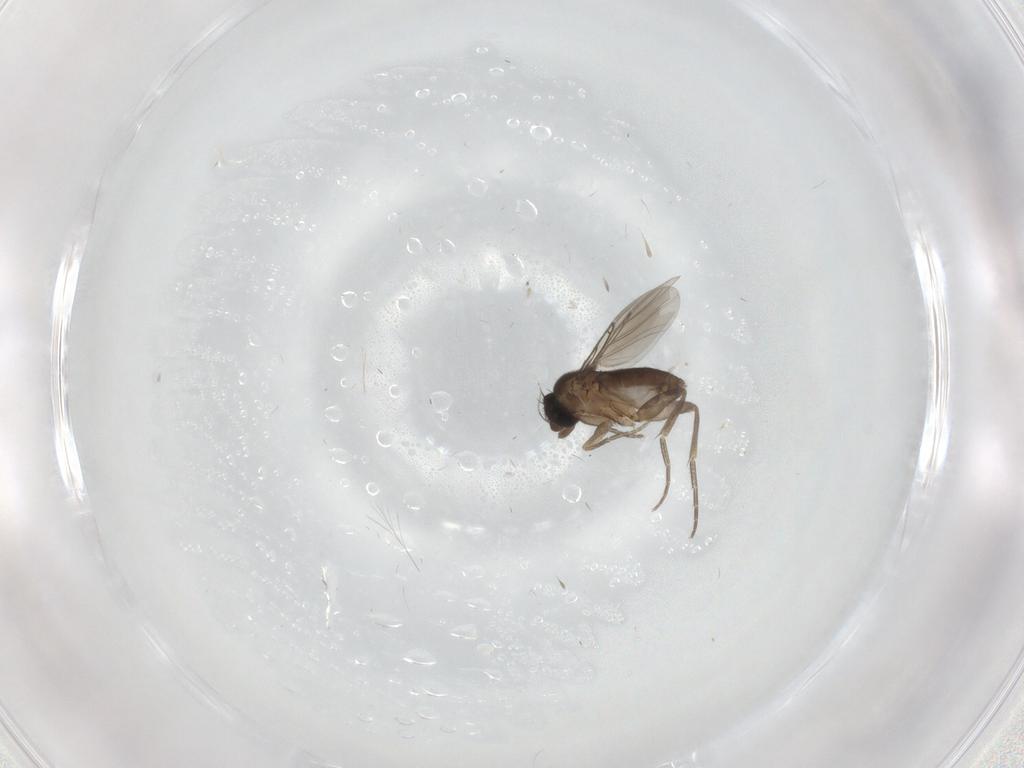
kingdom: Animalia
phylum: Arthropoda
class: Insecta
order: Diptera
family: Phoridae
